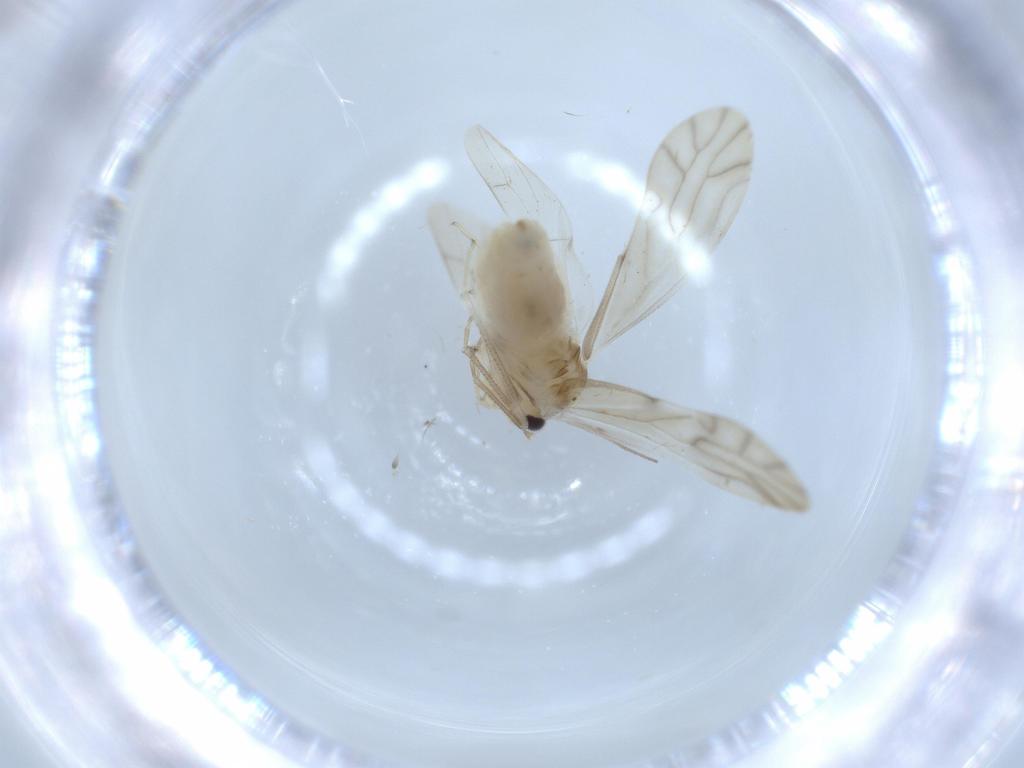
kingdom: Animalia
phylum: Arthropoda
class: Insecta
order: Psocodea
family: Caeciliusidae
